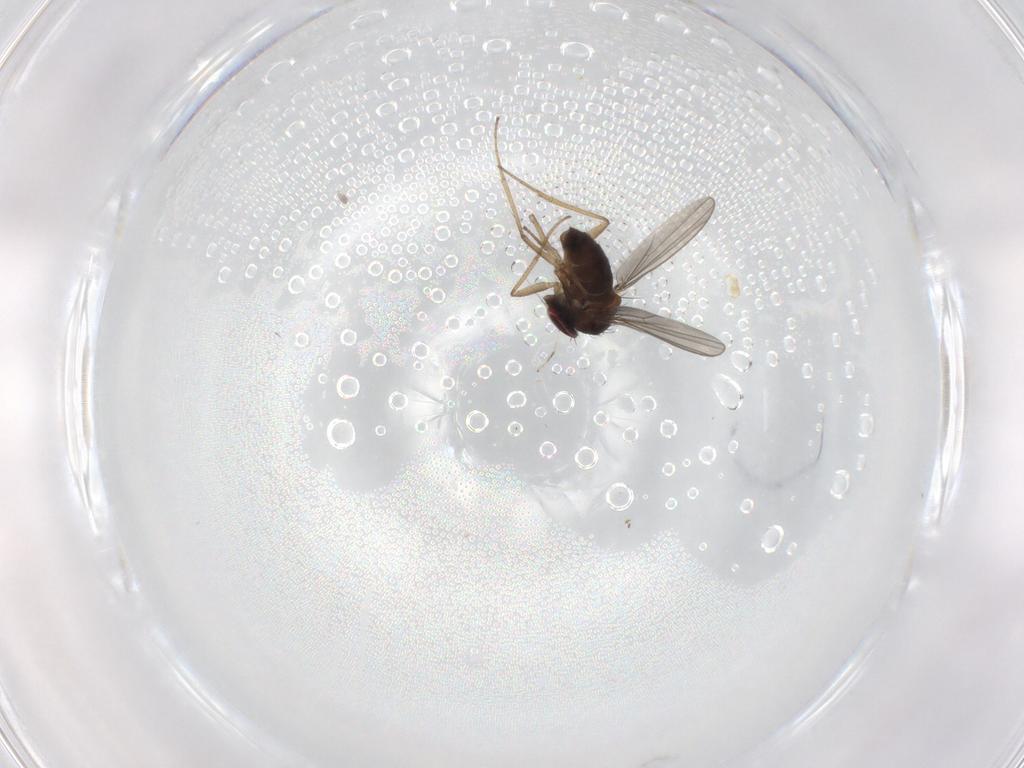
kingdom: Animalia
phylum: Arthropoda
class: Insecta
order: Diptera
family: Dolichopodidae
